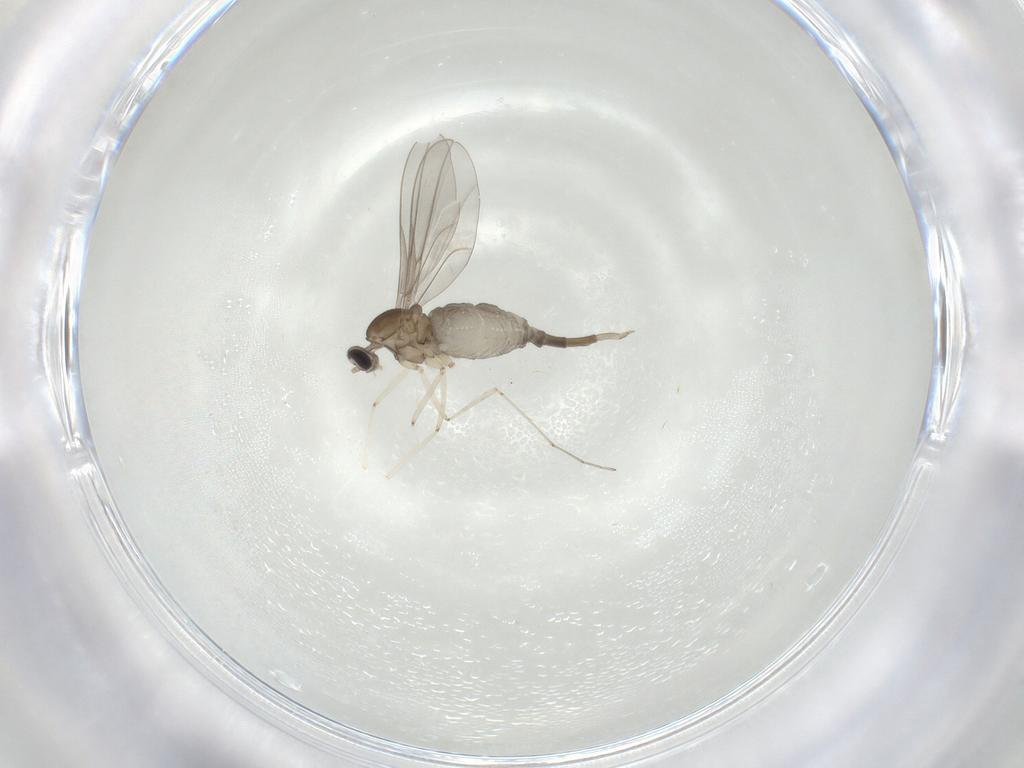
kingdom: Animalia
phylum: Arthropoda
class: Insecta
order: Diptera
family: Cecidomyiidae
